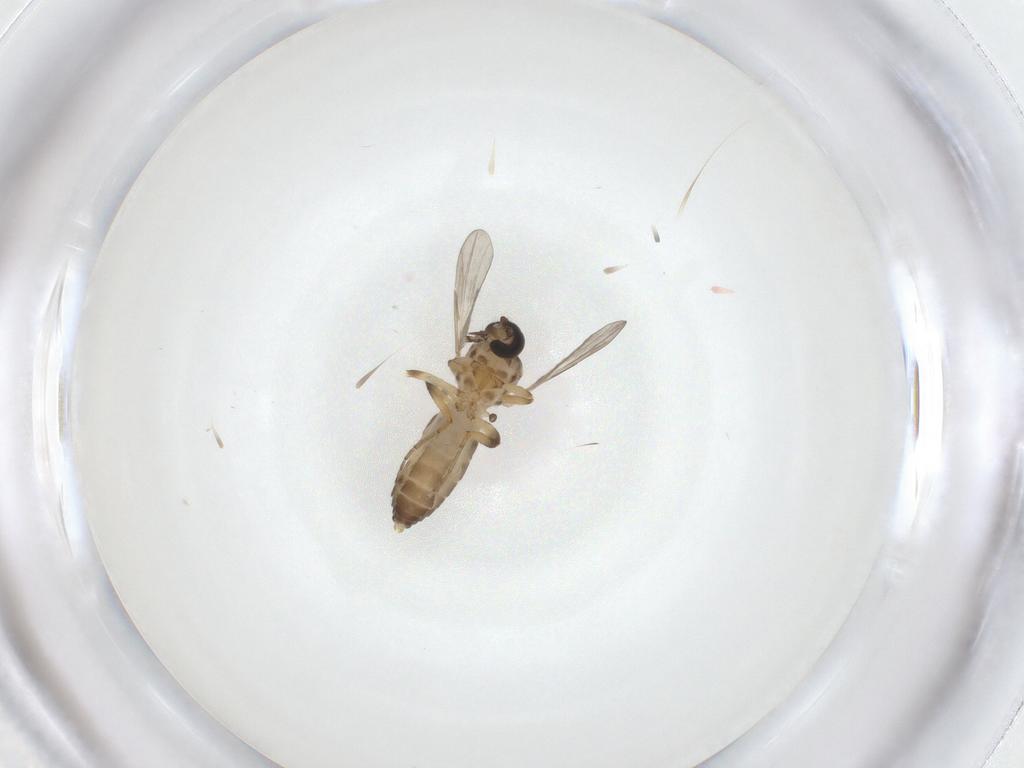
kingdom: Animalia
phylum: Arthropoda
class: Insecta
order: Diptera
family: Ceratopogonidae
